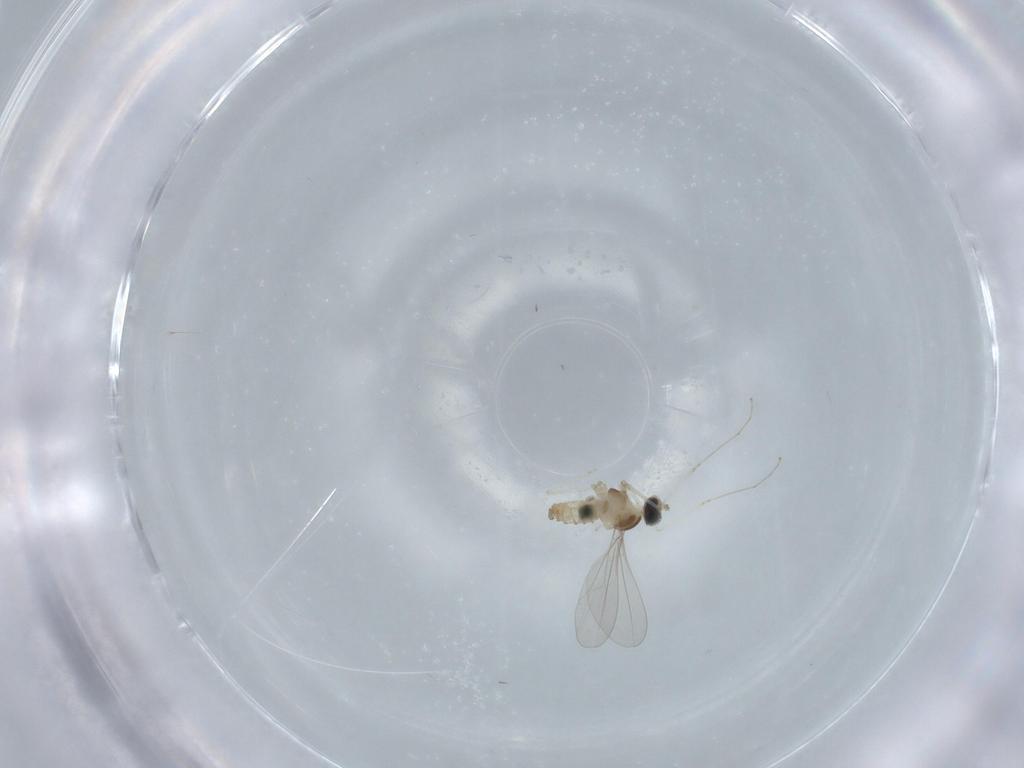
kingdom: Animalia
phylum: Arthropoda
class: Insecta
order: Diptera
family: Cecidomyiidae
